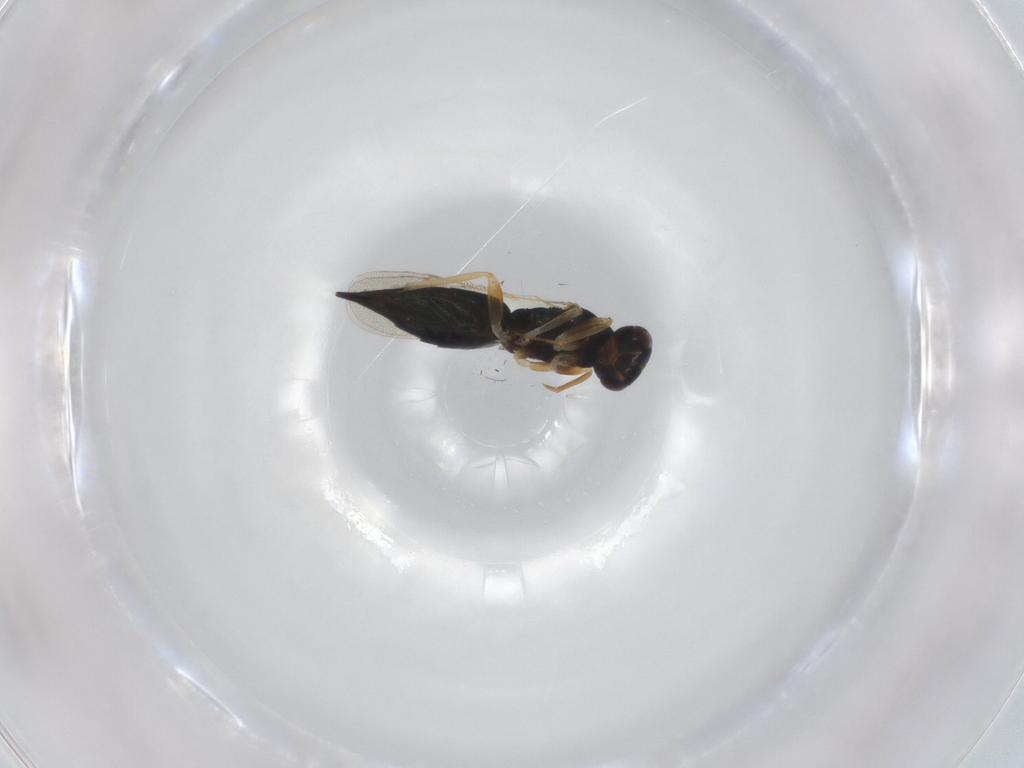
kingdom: Animalia
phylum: Arthropoda
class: Insecta
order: Hymenoptera
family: Eulophidae
